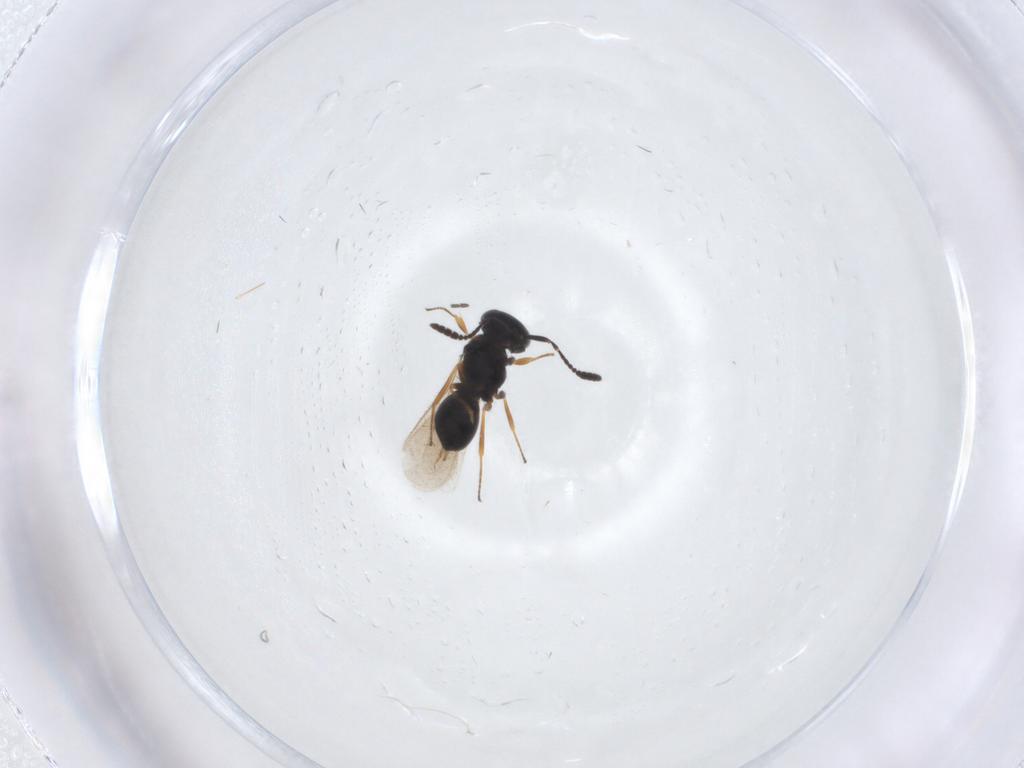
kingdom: Animalia
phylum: Arthropoda
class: Insecta
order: Hymenoptera
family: Scelionidae
